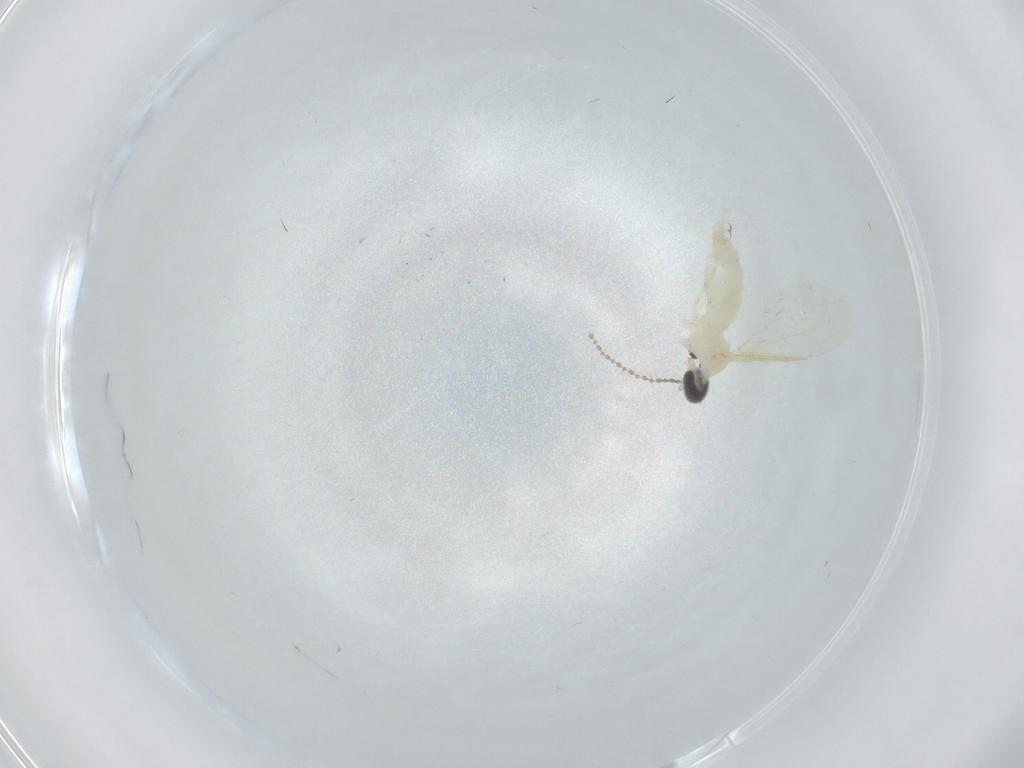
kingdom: Animalia
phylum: Arthropoda
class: Insecta
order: Diptera
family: Cecidomyiidae
